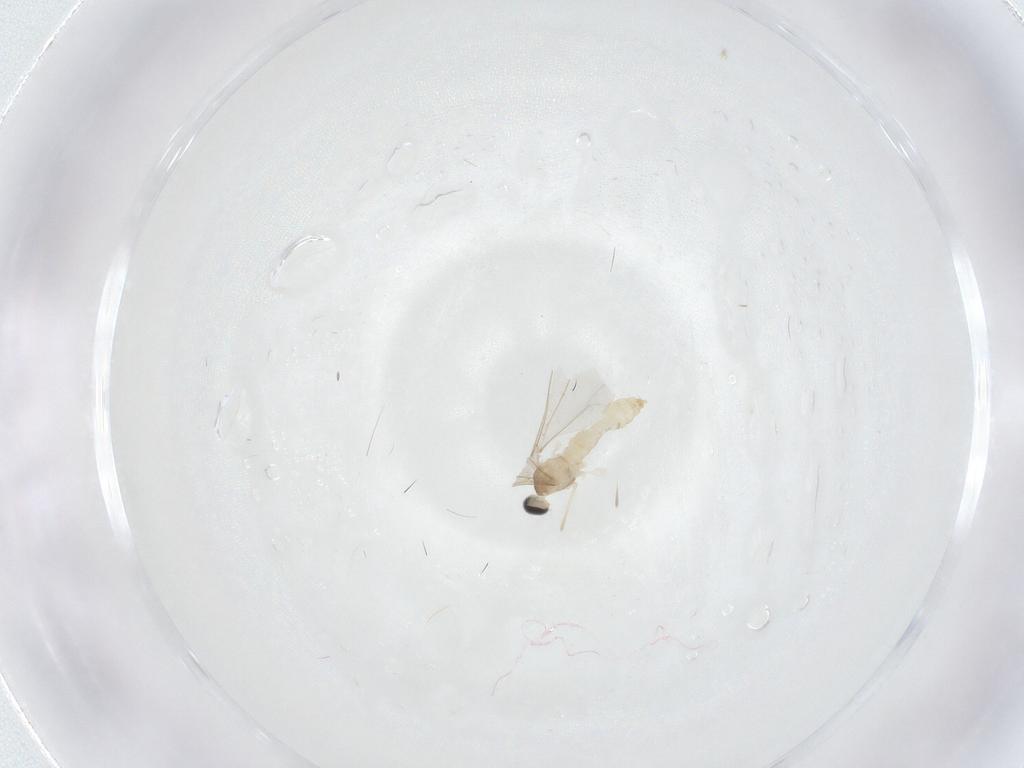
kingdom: Animalia
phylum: Arthropoda
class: Insecta
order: Diptera
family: Cecidomyiidae
